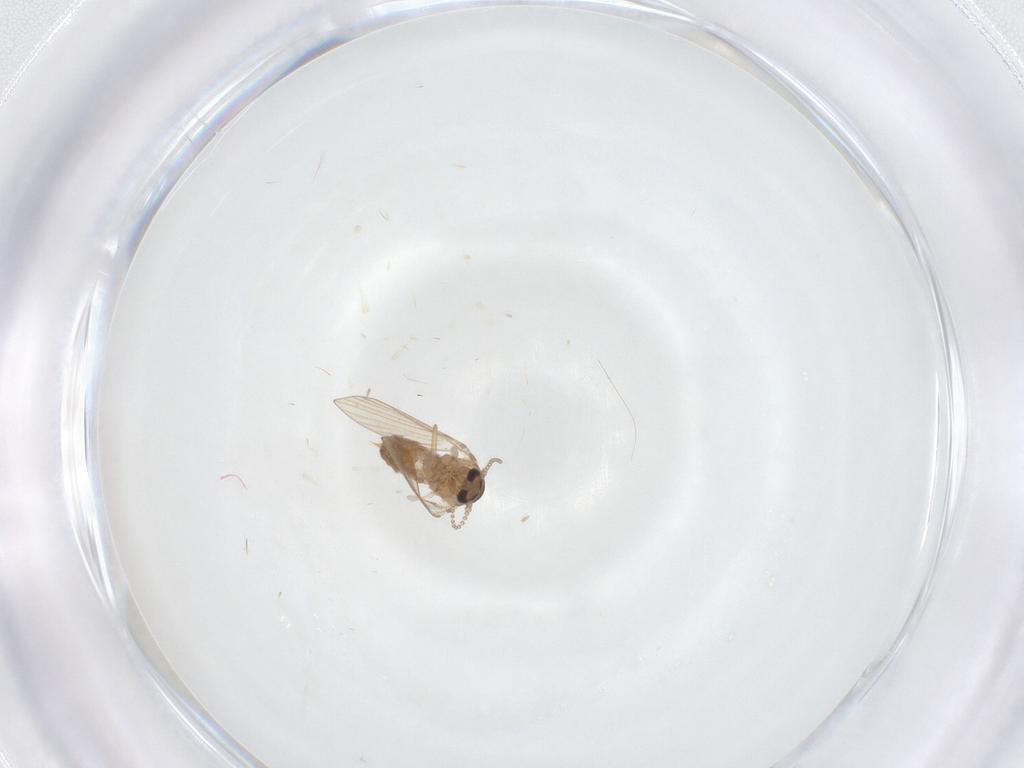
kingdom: Animalia
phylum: Arthropoda
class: Insecta
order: Diptera
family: Psychodidae
